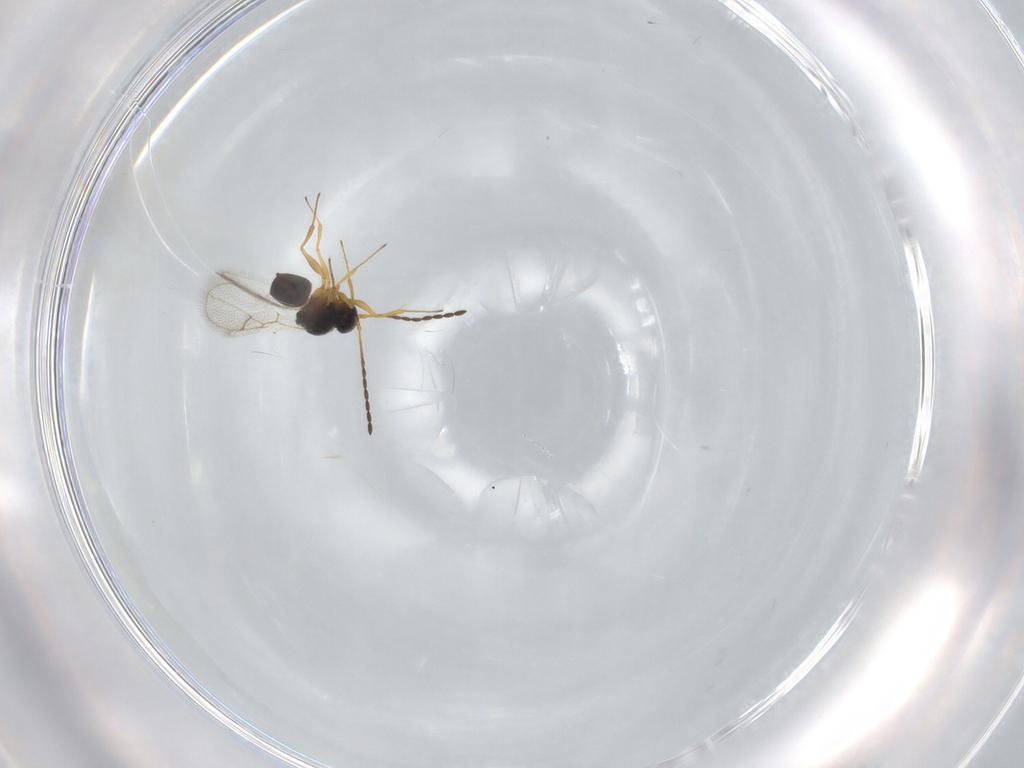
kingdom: Animalia
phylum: Arthropoda
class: Insecta
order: Hymenoptera
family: Figitidae
